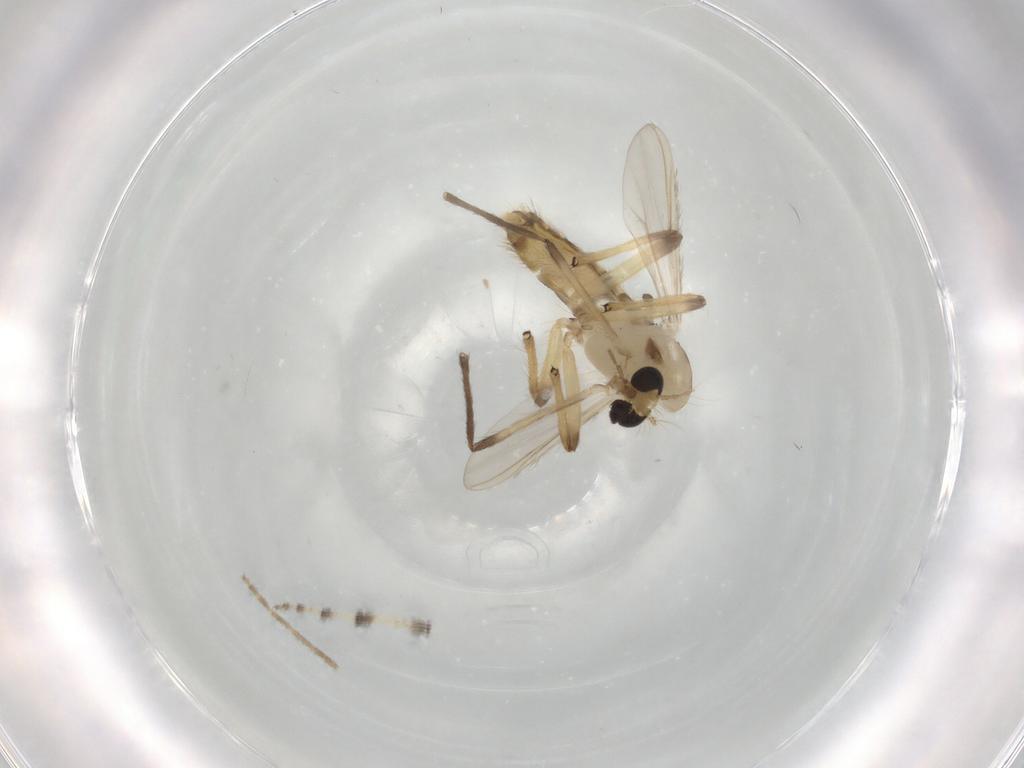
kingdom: Animalia
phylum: Arthropoda
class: Insecta
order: Diptera
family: Chironomidae
